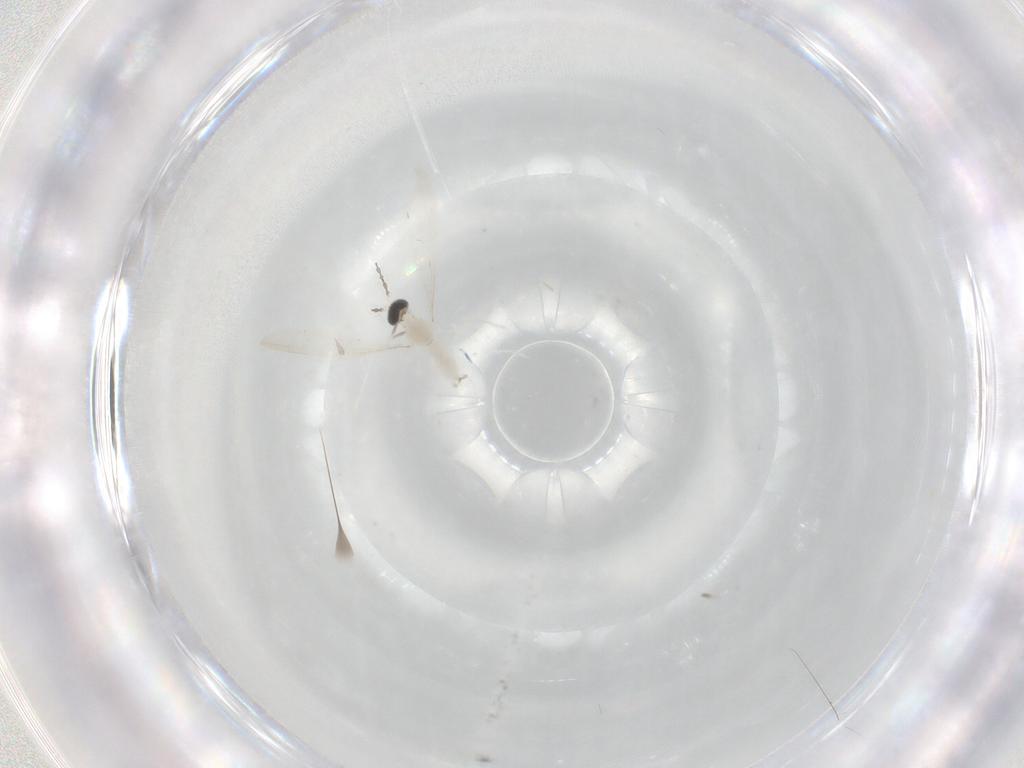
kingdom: Animalia
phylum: Arthropoda
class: Insecta
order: Diptera
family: Cecidomyiidae
